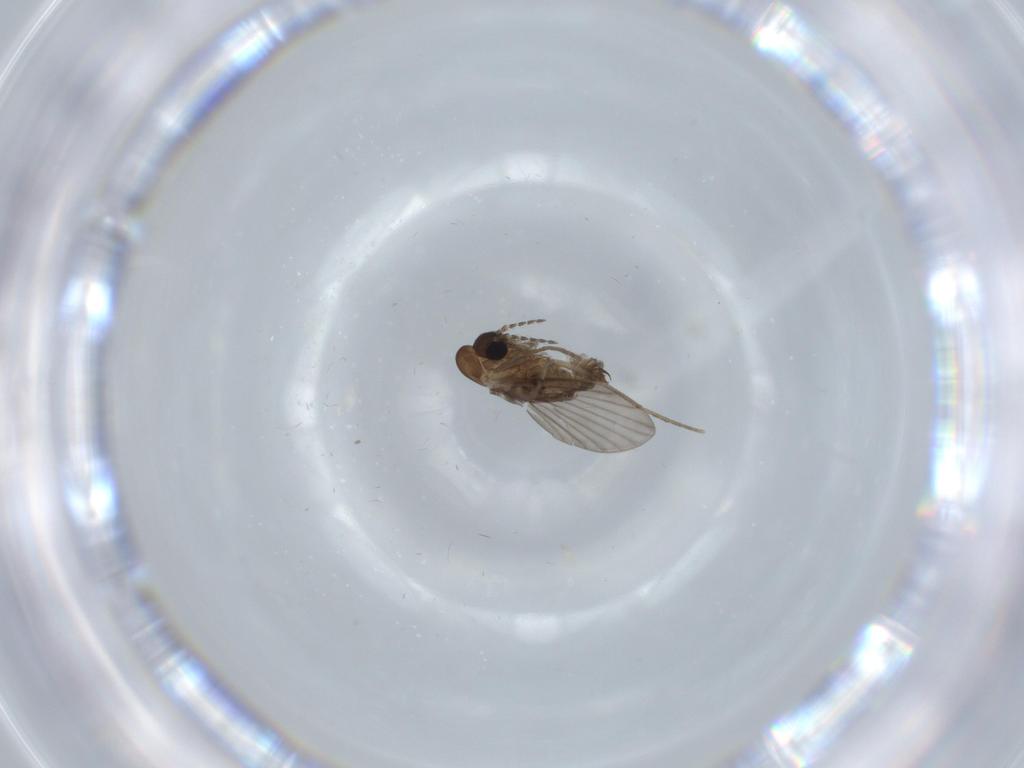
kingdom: Animalia
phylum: Arthropoda
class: Insecta
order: Diptera
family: Psychodidae
